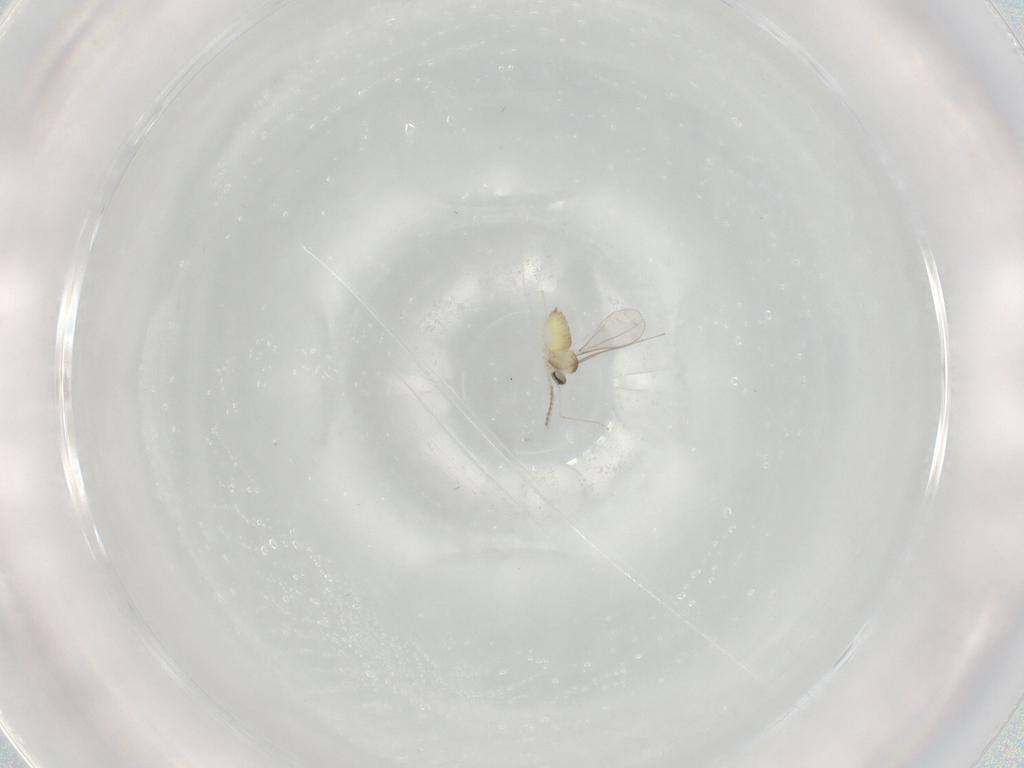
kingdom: Animalia
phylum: Arthropoda
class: Insecta
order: Diptera
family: Cecidomyiidae
